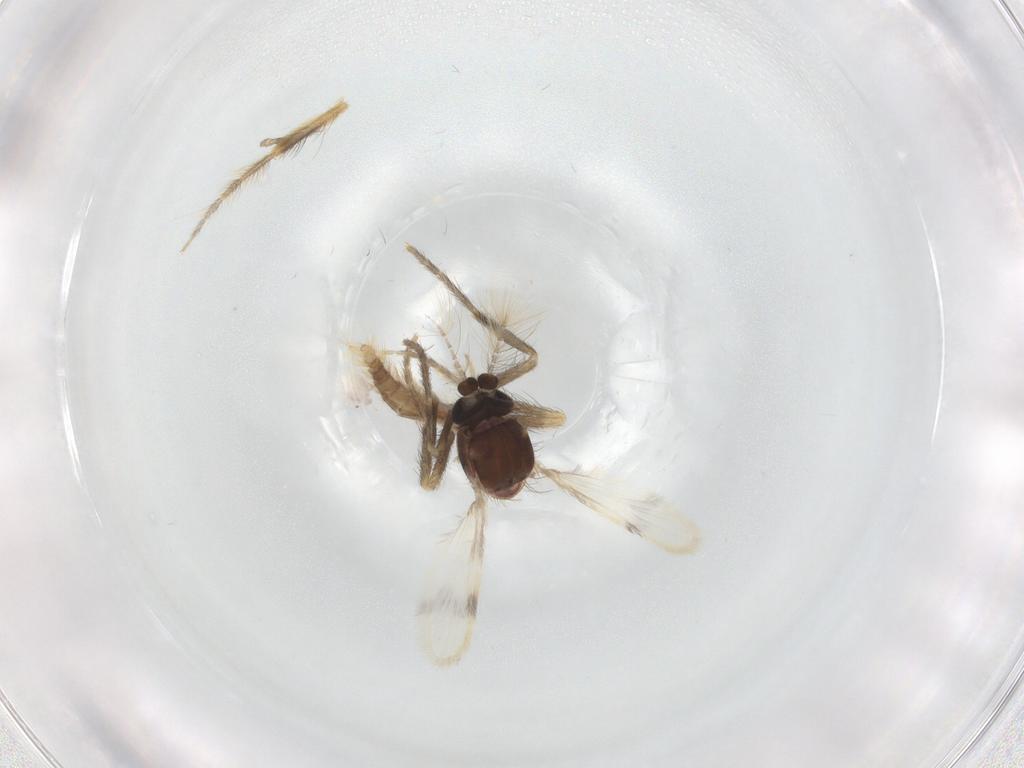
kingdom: Animalia
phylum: Arthropoda
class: Insecta
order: Diptera
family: Corethrellidae
